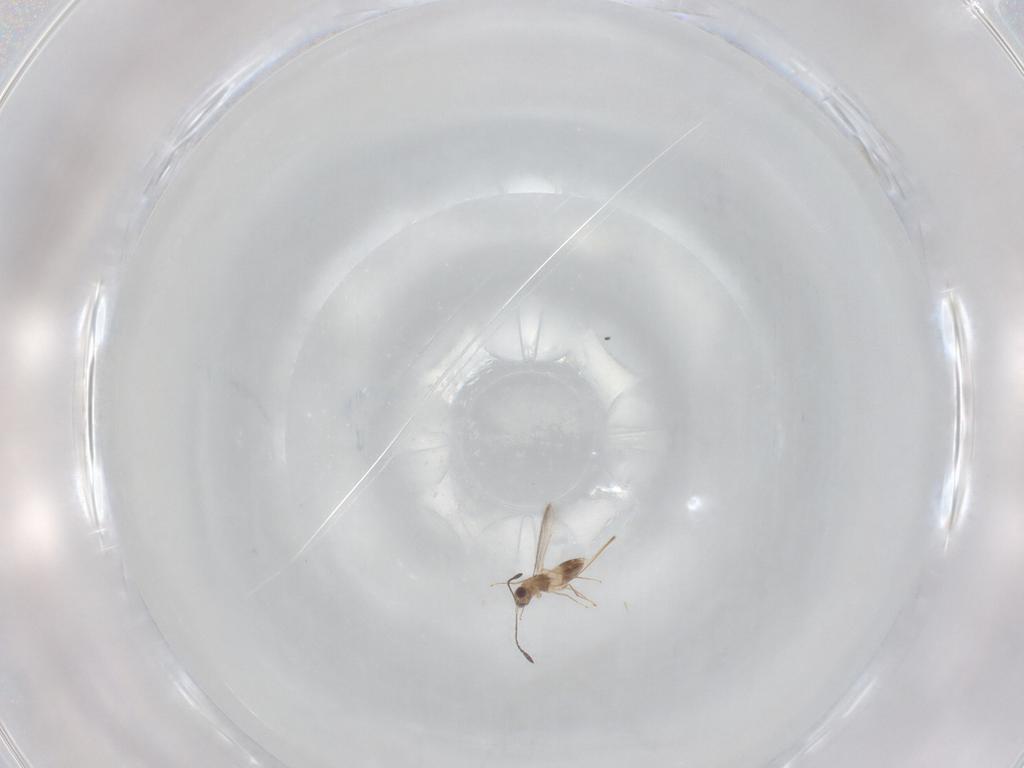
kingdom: Animalia
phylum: Arthropoda
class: Insecta
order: Hymenoptera
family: Mymaridae
